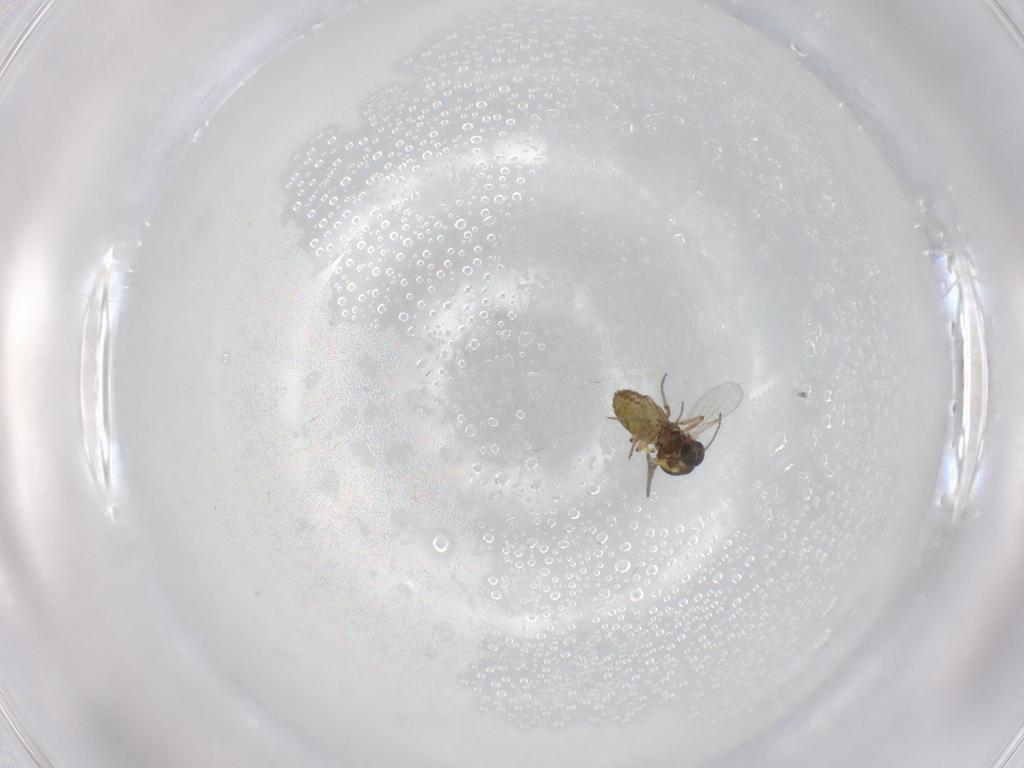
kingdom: Animalia
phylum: Arthropoda
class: Insecta
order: Diptera
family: Ceratopogonidae
